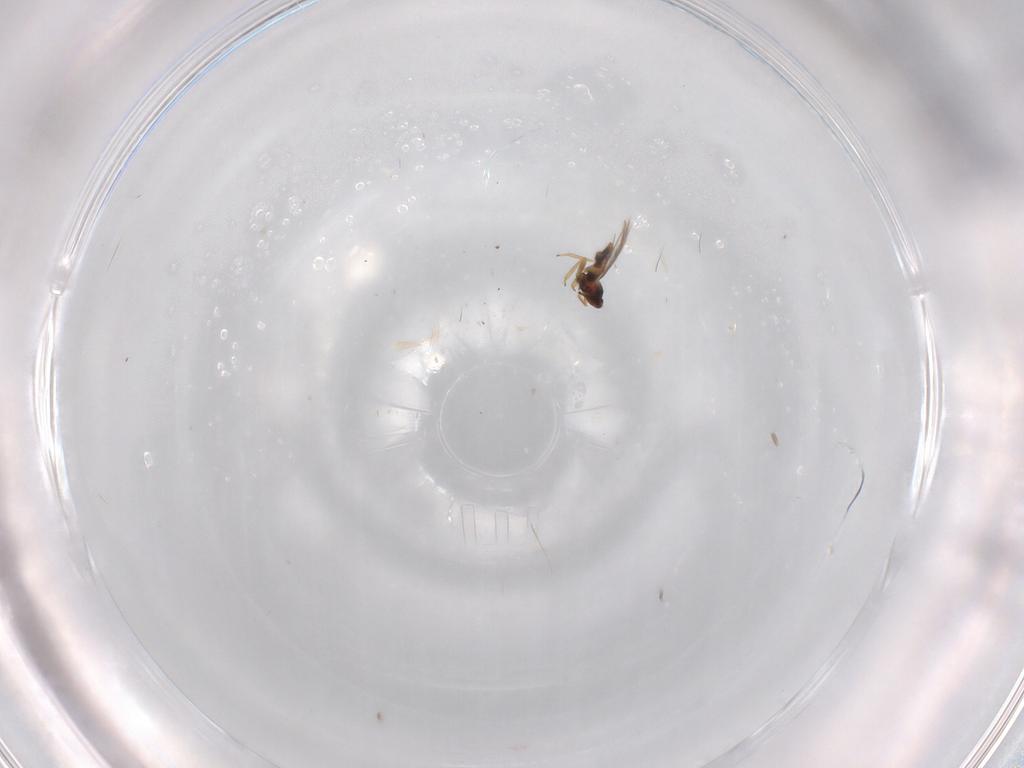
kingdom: Animalia
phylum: Arthropoda
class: Insecta
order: Thysanoptera
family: Thripidae
